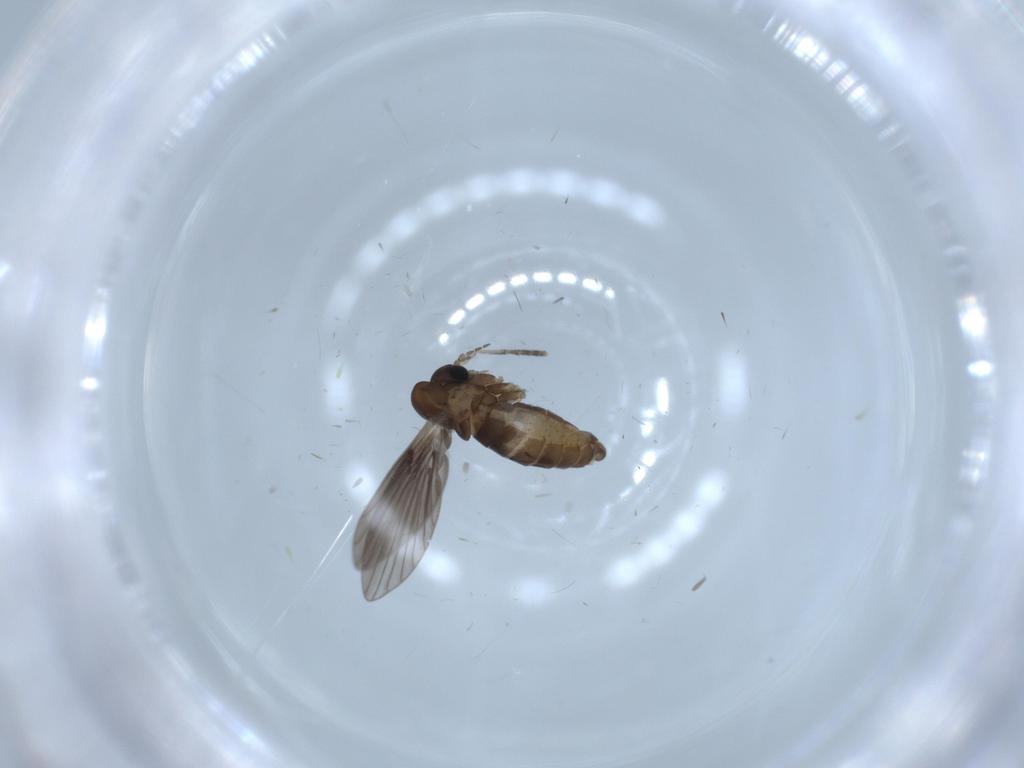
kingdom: Animalia
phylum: Arthropoda
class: Insecta
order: Diptera
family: Psychodidae
